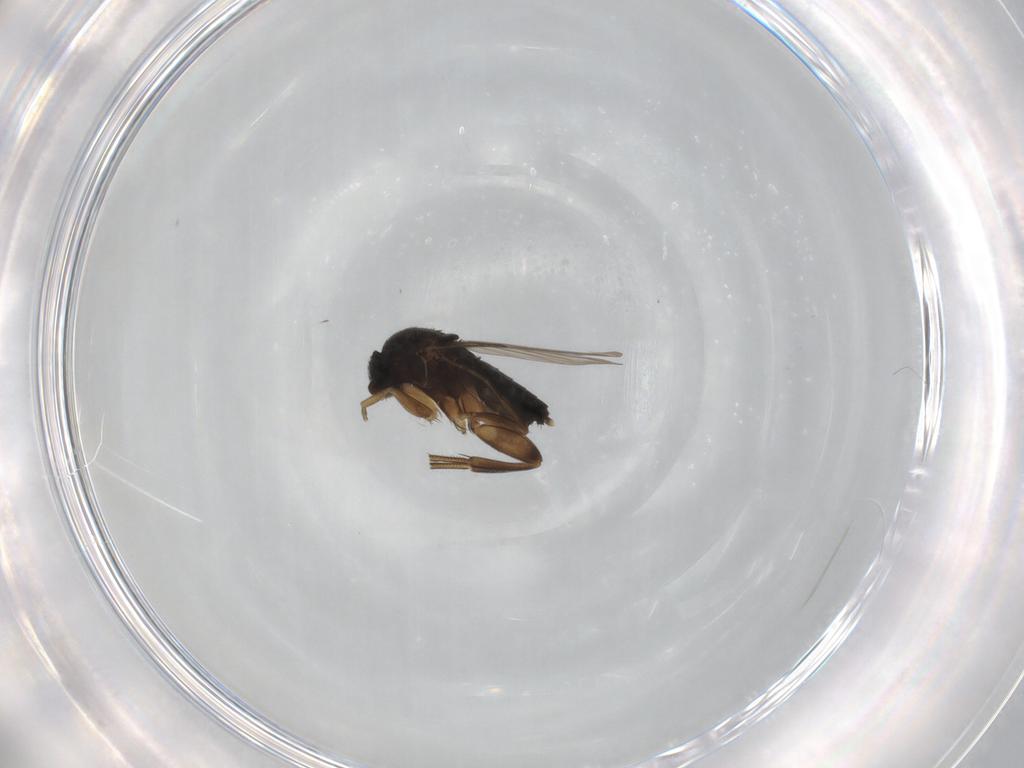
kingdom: Animalia
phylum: Arthropoda
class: Insecta
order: Diptera
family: Phoridae
